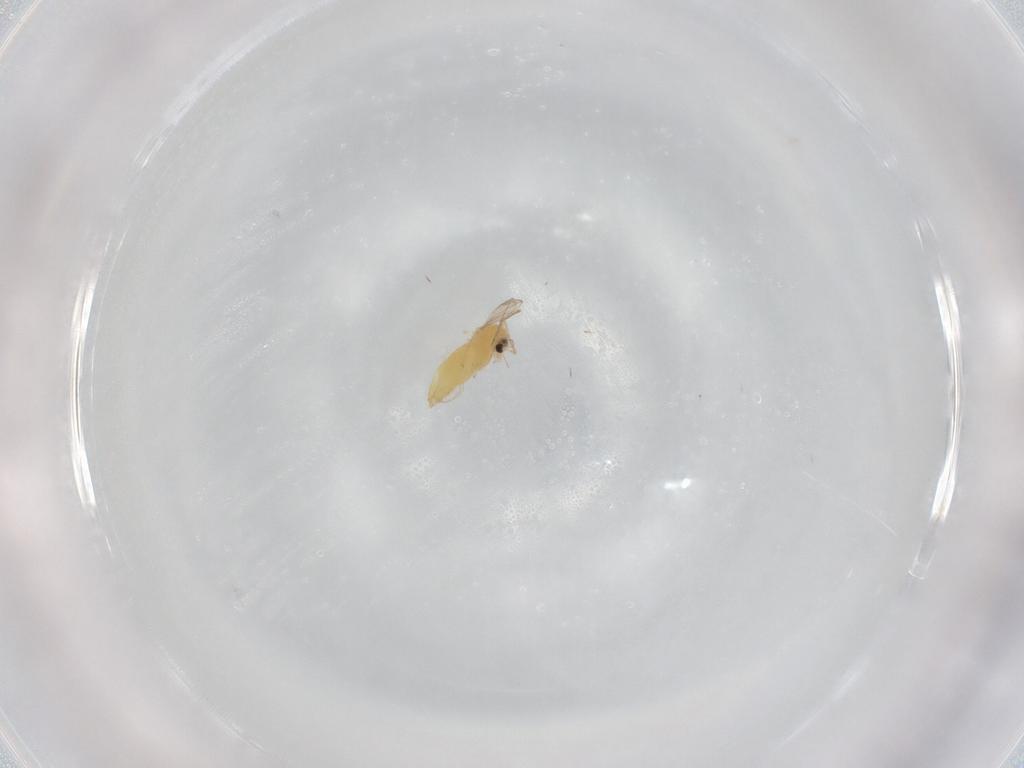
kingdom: Animalia
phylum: Arthropoda
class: Insecta
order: Diptera
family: Chironomidae
